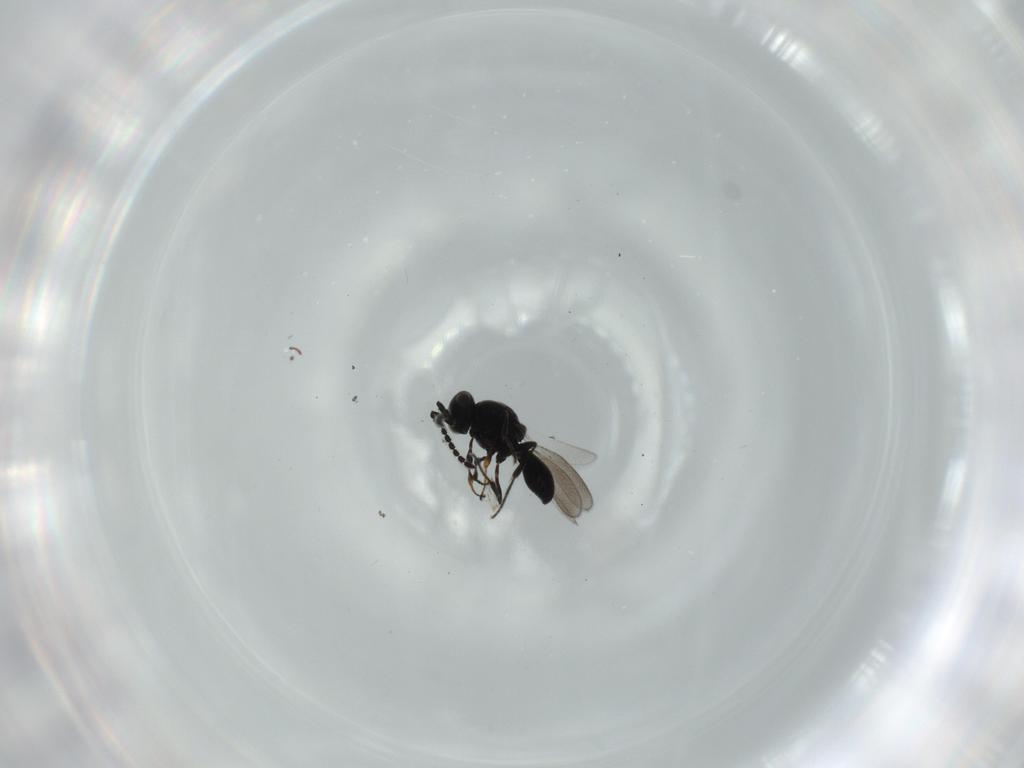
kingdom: Animalia
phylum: Arthropoda
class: Insecta
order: Hymenoptera
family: Platygastridae
